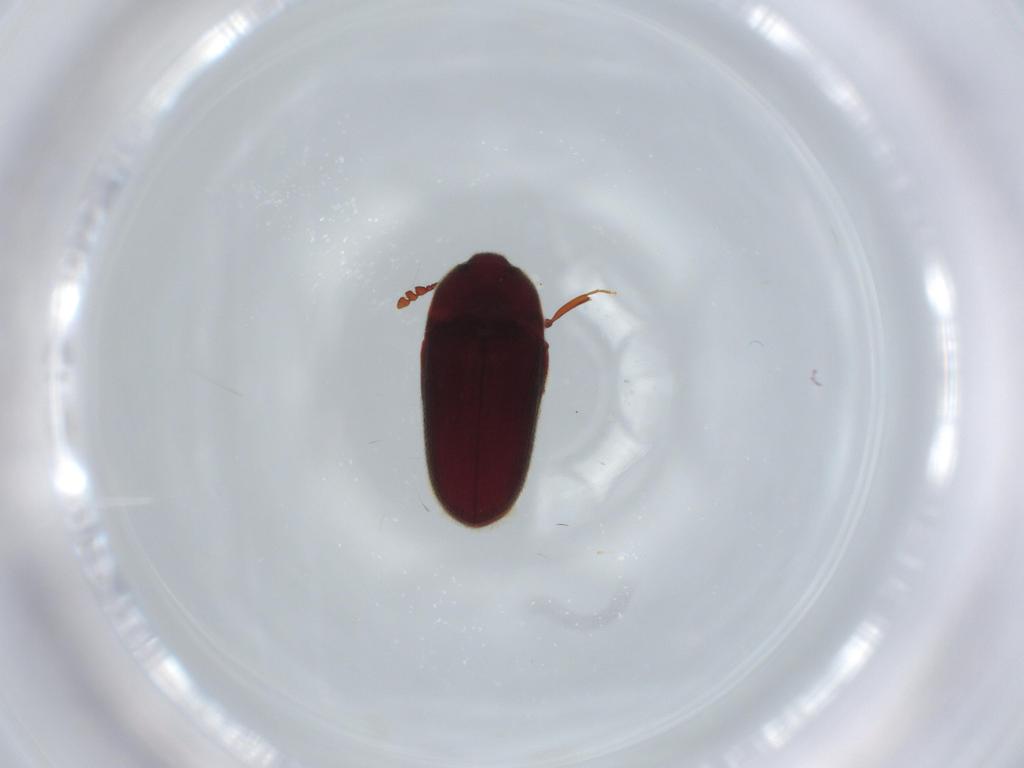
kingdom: Animalia
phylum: Arthropoda
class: Insecta
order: Coleoptera
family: Throscidae
